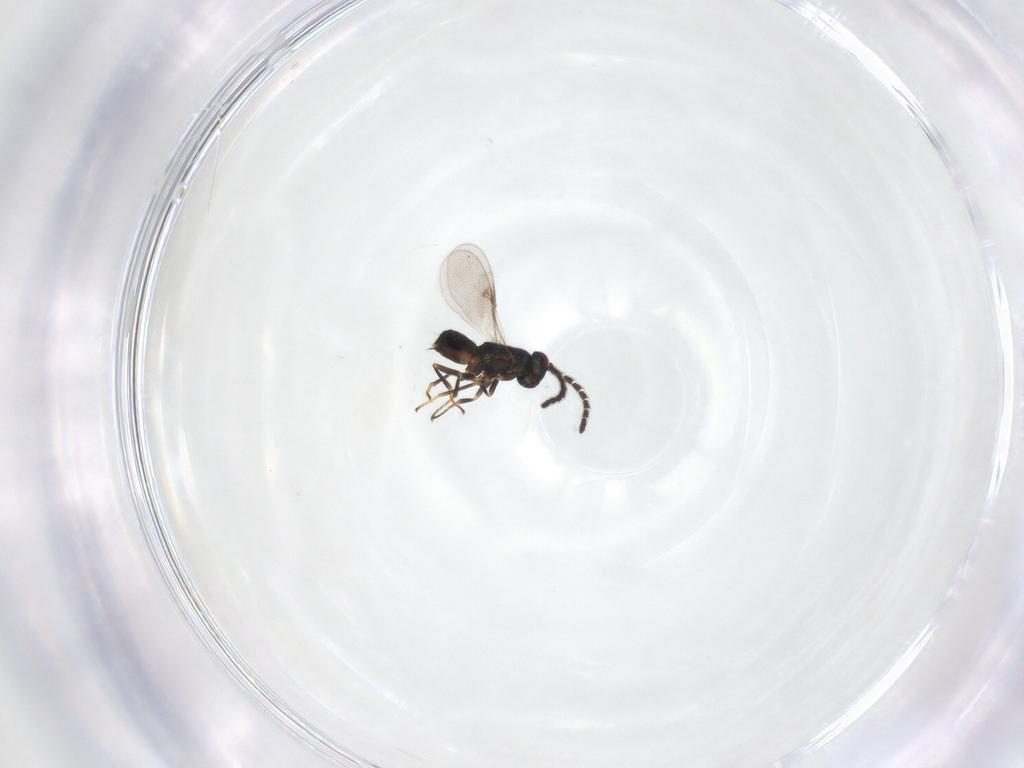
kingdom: Animalia
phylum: Arthropoda
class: Insecta
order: Hymenoptera
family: Encyrtidae
